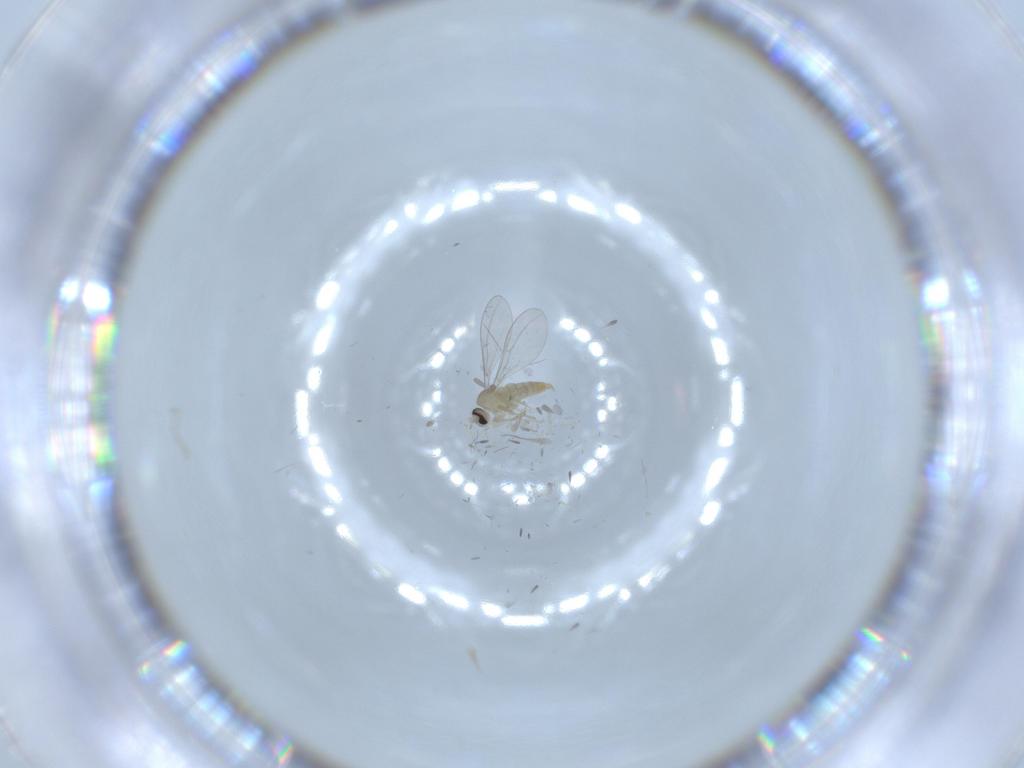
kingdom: Animalia
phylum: Arthropoda
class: Insecta
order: Diptera
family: Cecidomyiidae
